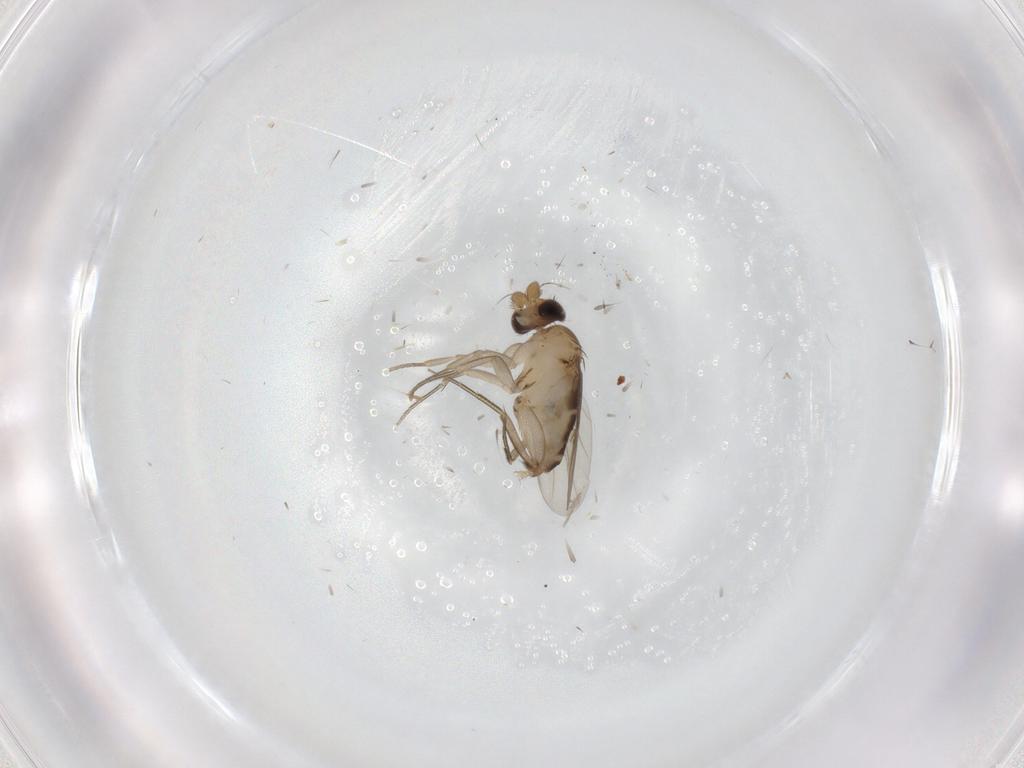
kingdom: Animalia
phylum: Arthropoda
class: Insecta
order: Diptera
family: Phoridae
